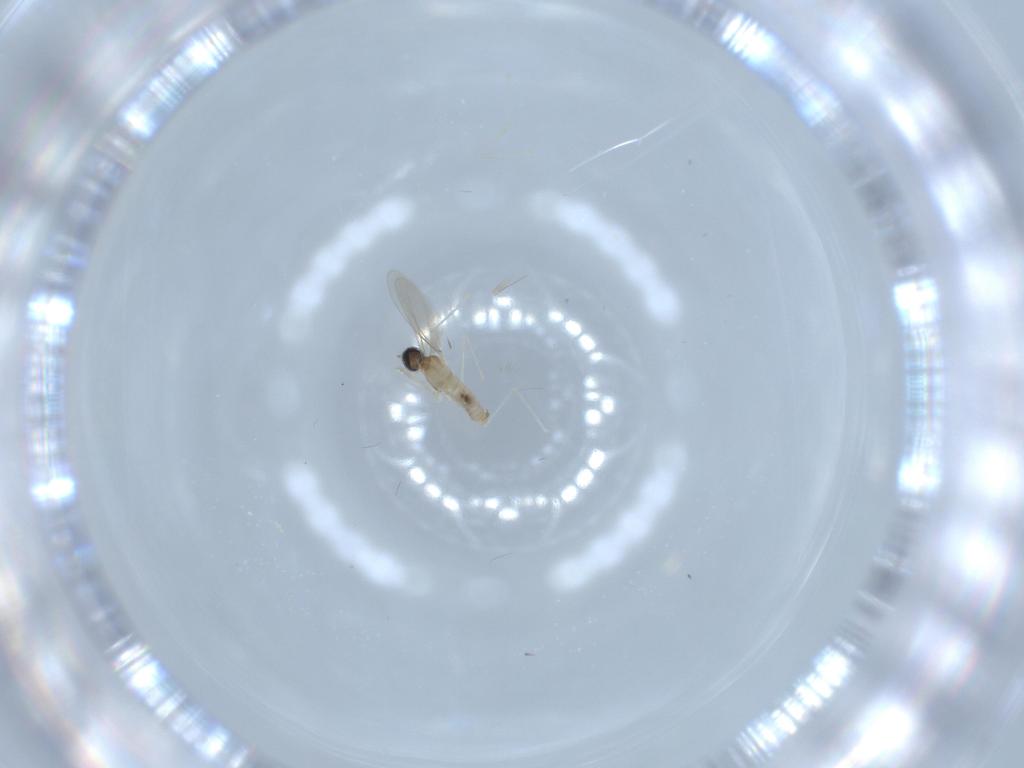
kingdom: Animalia
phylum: Arthropoda
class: Insecta
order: Diptera
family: Cecidomyiidae
